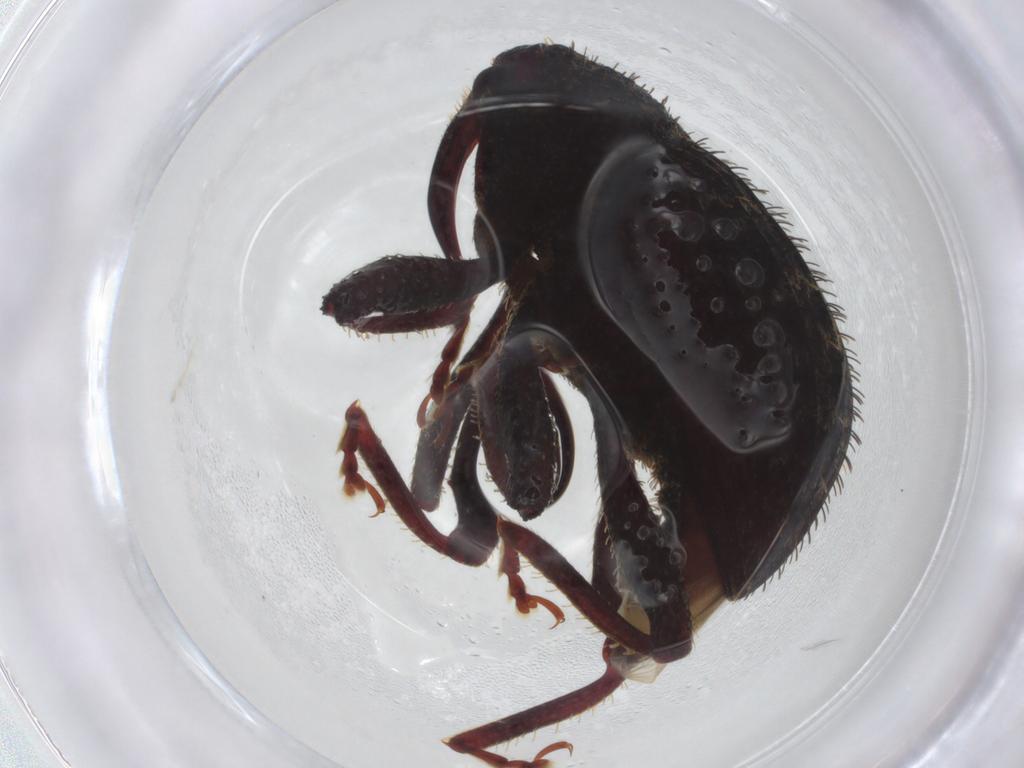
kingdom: Animalia
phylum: Arthropoda
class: Insecta
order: Coleoptera
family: Curculionidae
